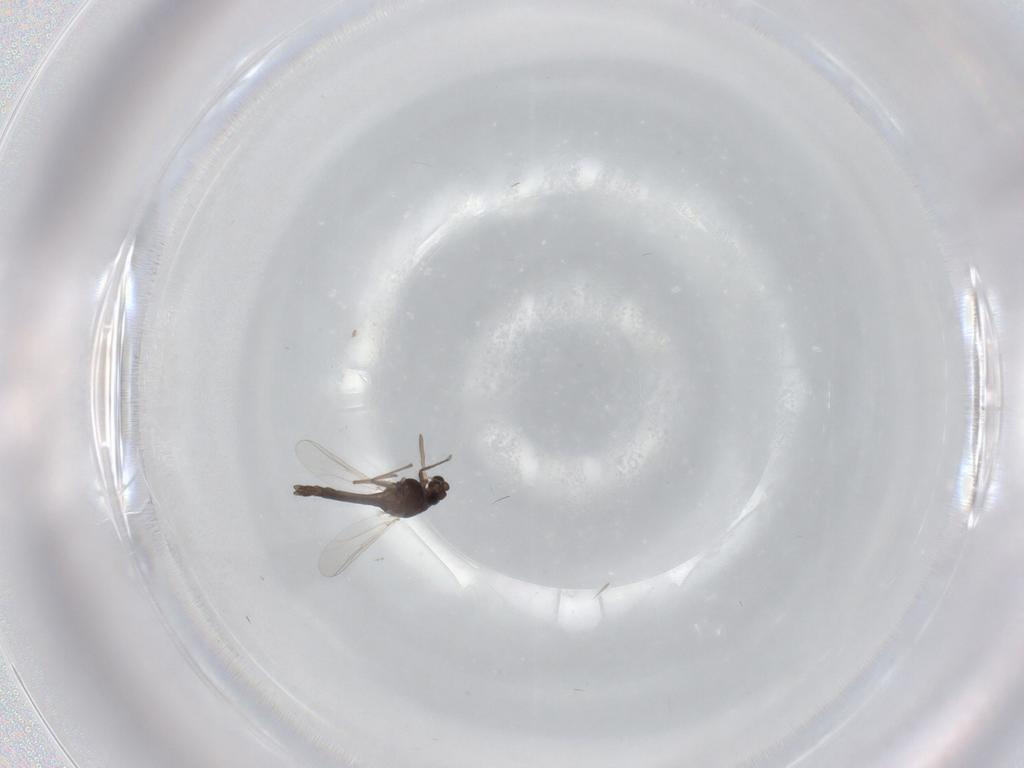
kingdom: Animalia
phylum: Arthropoda
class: Insecta
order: Diptera
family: Chironomidae
